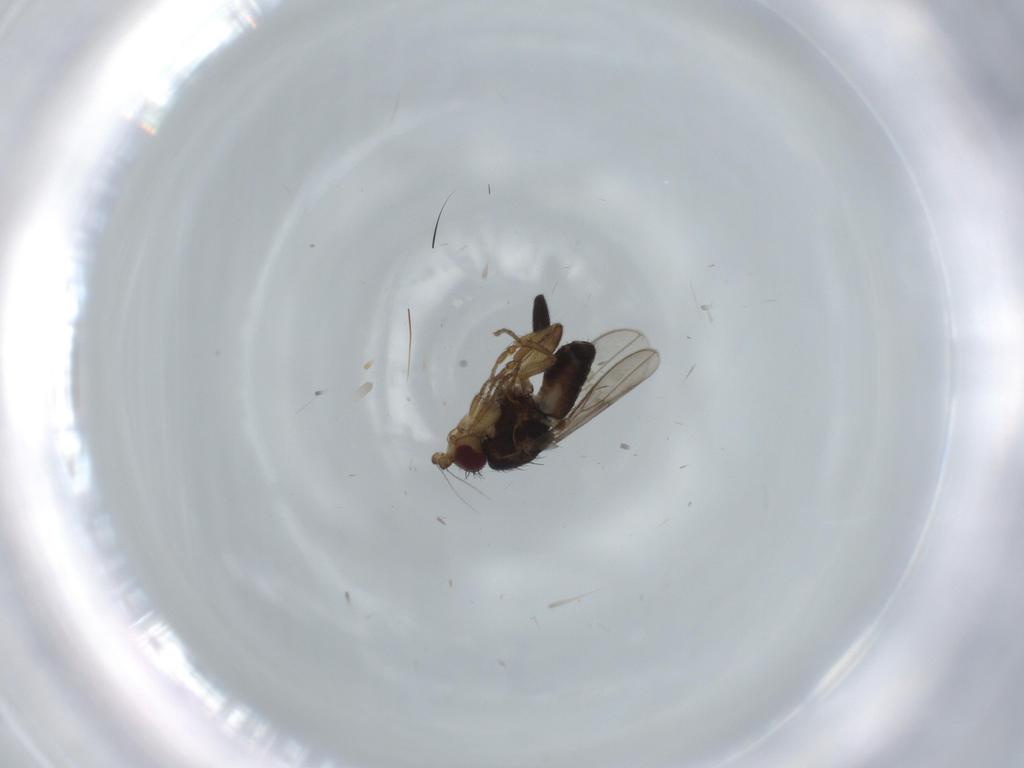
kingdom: Animalia
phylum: Arthropoda
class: Insecta
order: Diptera
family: Sphaeroceridae
